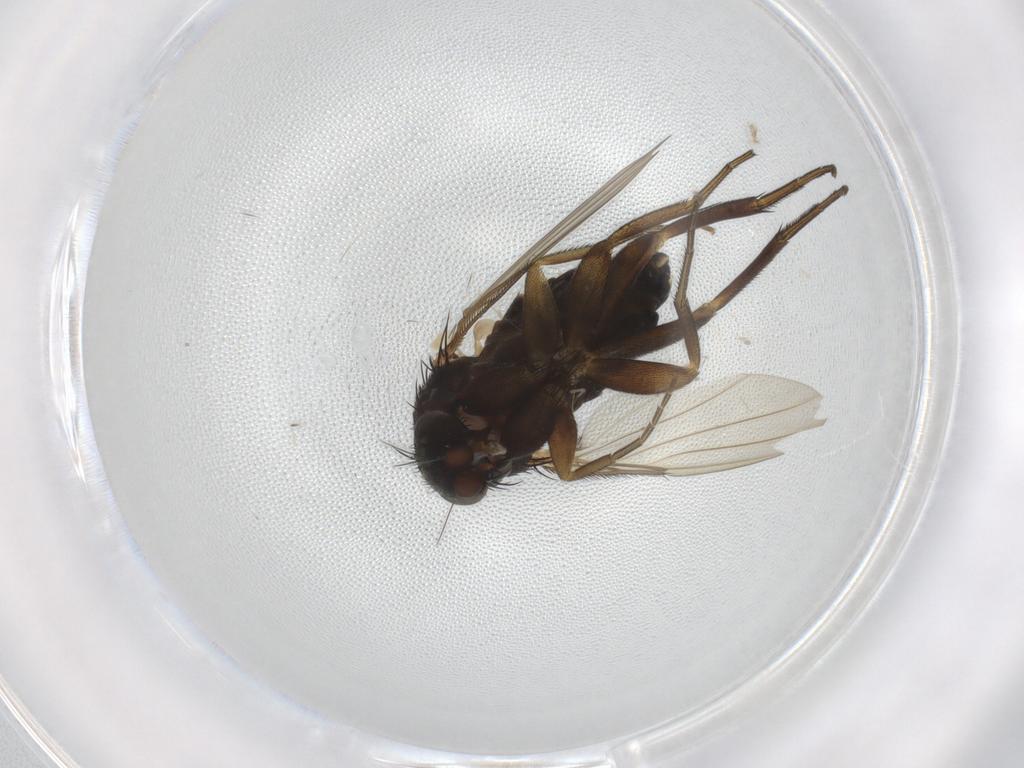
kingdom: Animalia
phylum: Arthropoda
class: Insecta
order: Diptera
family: Phoridae
